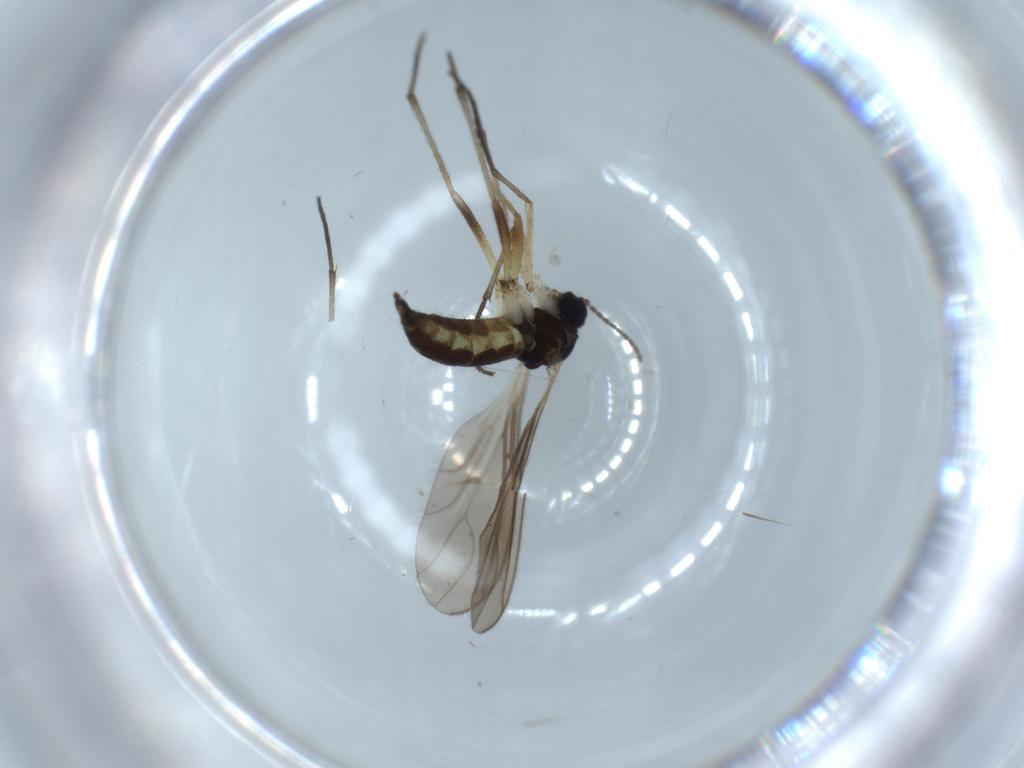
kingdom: Animalia
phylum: Arthropoda
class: Insecta
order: Diptera
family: Sciaridae
